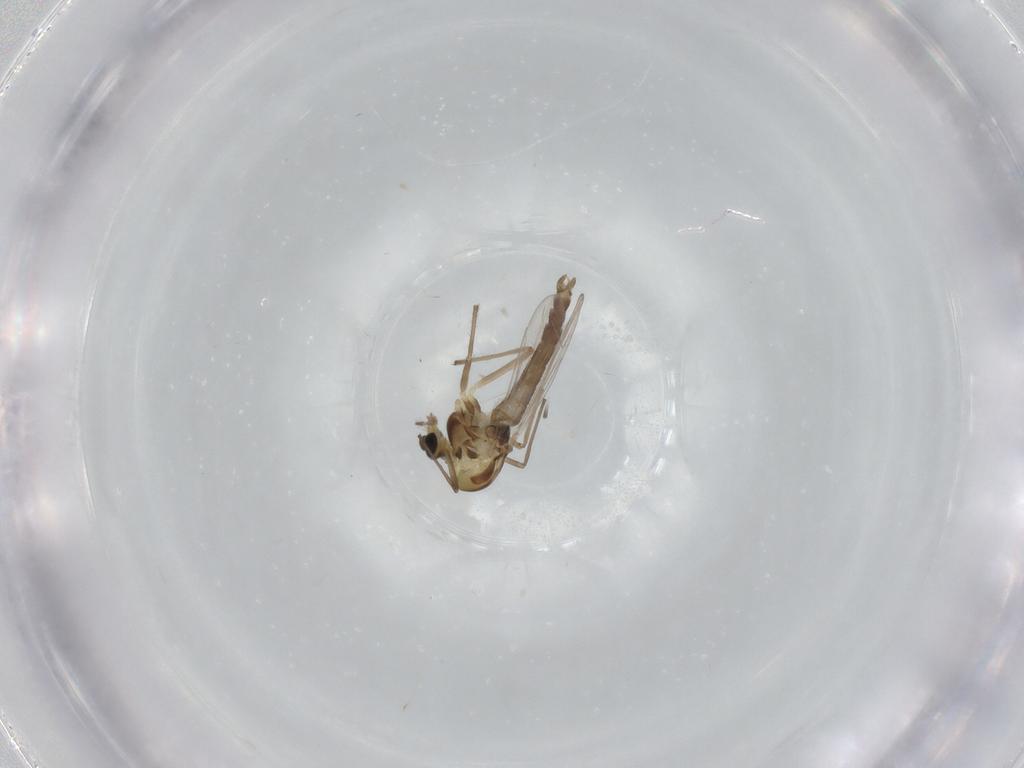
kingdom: Animalia
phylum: Arthropoda
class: Insecta
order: Diptera
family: Chironomidae
